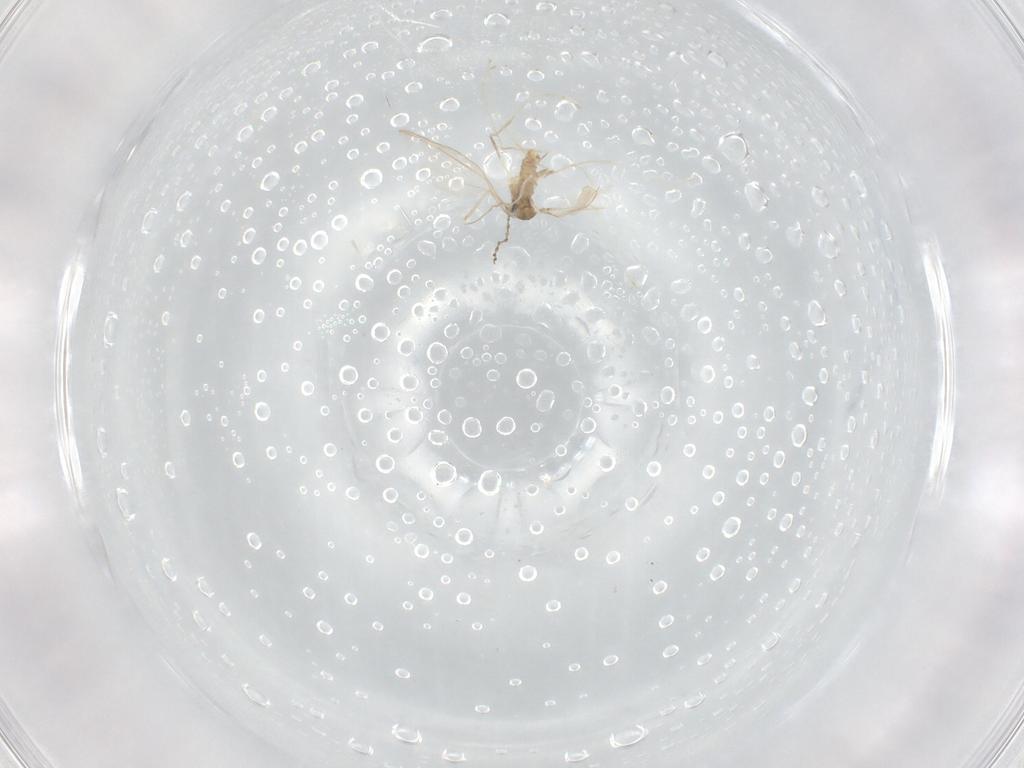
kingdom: Animalia
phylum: Arthropoda
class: Insecta
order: Diptera
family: Cecidomyiidae
